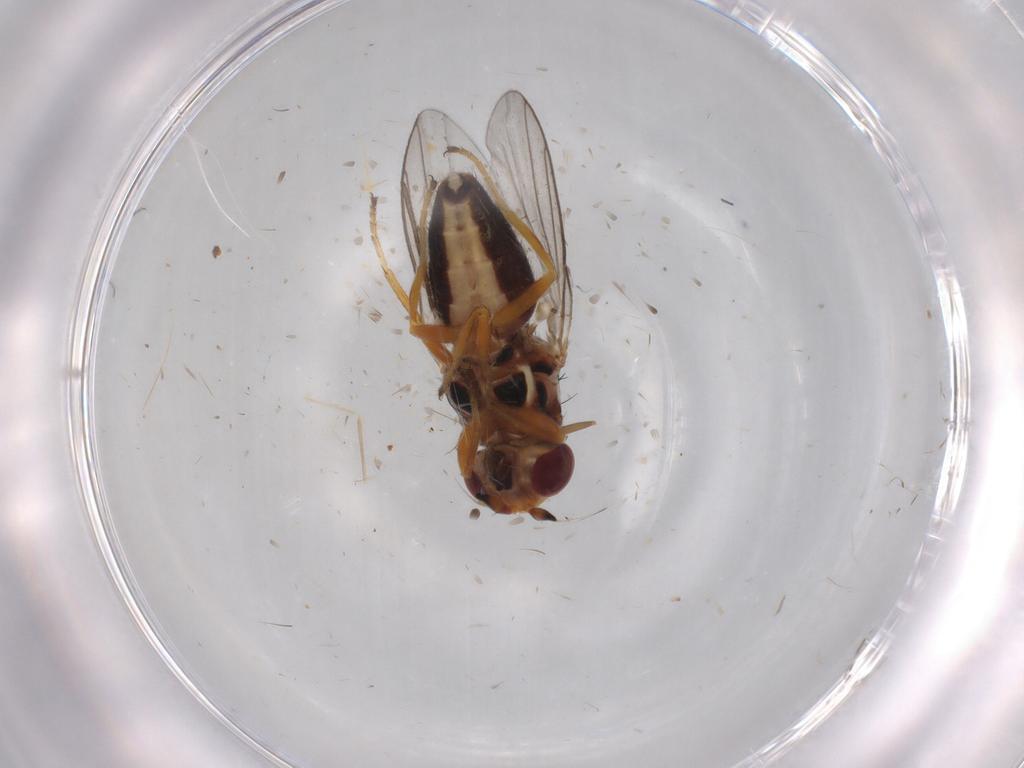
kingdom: Animalia
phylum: Arthropoda
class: Insecta
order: Diptera
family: Chloropidae
